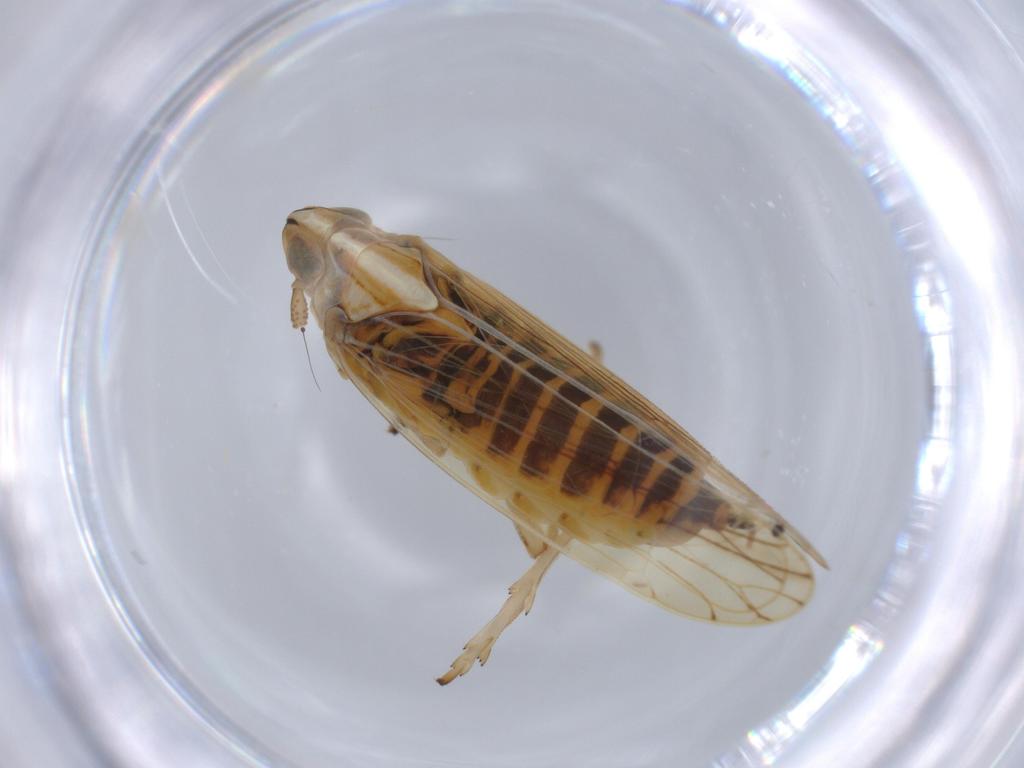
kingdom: Animalia
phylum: Arthropoda
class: Insecta
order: Hemiptera
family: Delphacidae
